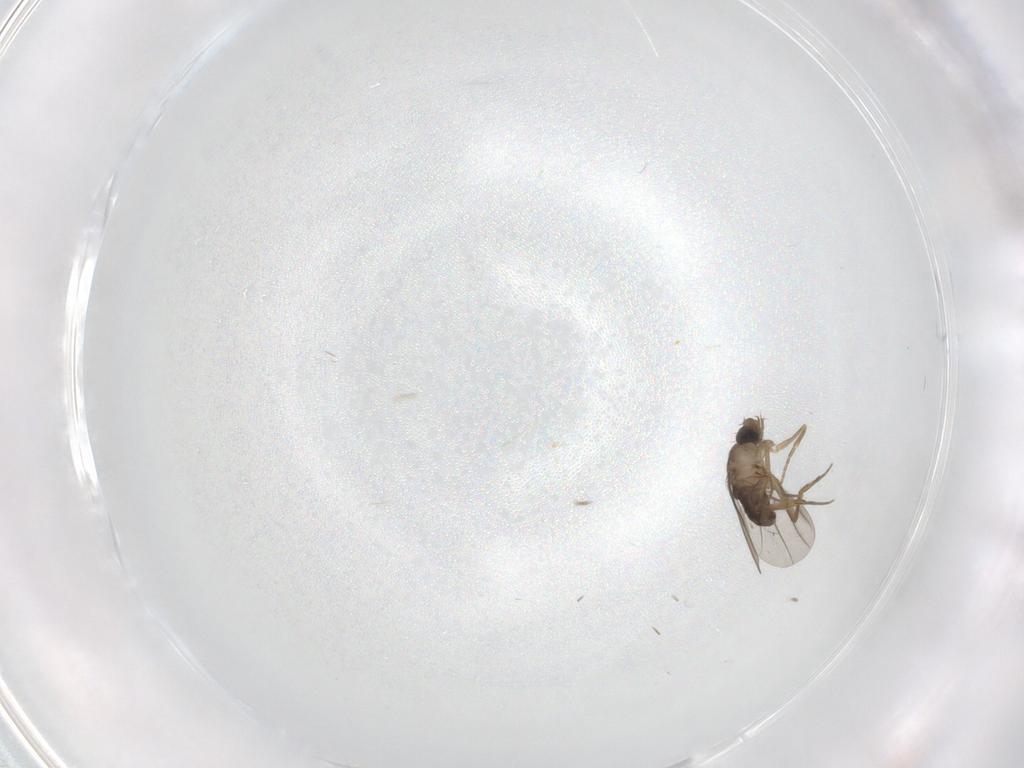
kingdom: Animalia
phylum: Arthropoda
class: Insecta
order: Diptera
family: Phoridae
